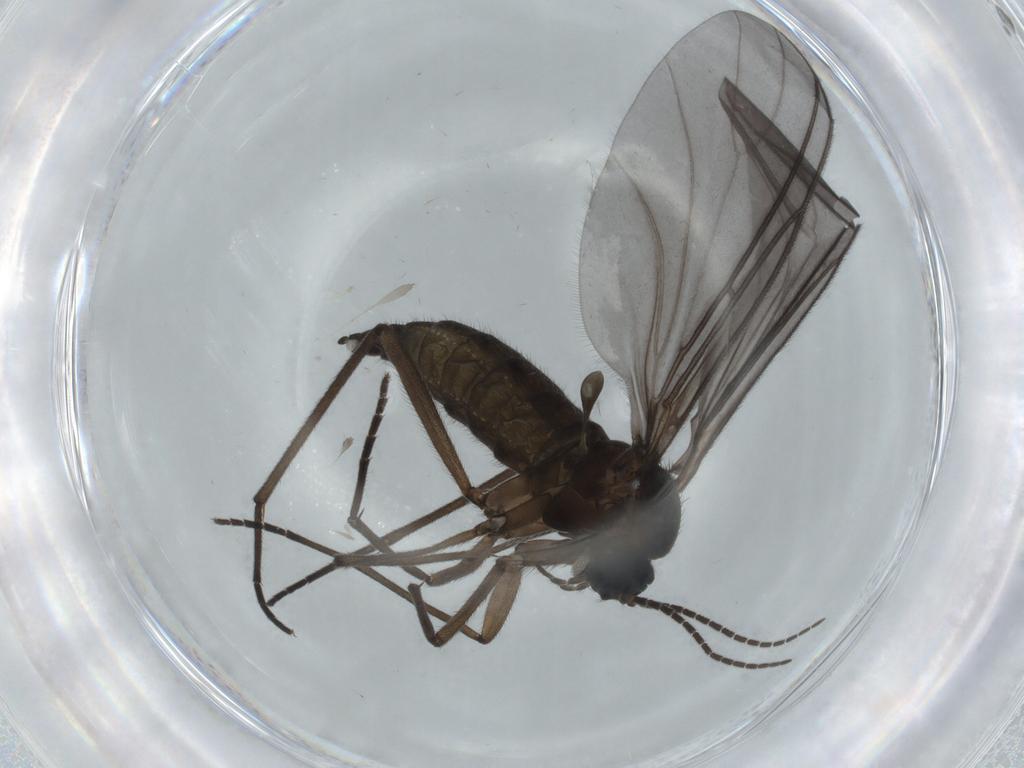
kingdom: Animalia
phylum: Arthropoda
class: Insecta
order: Diptera
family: Sciaridae
